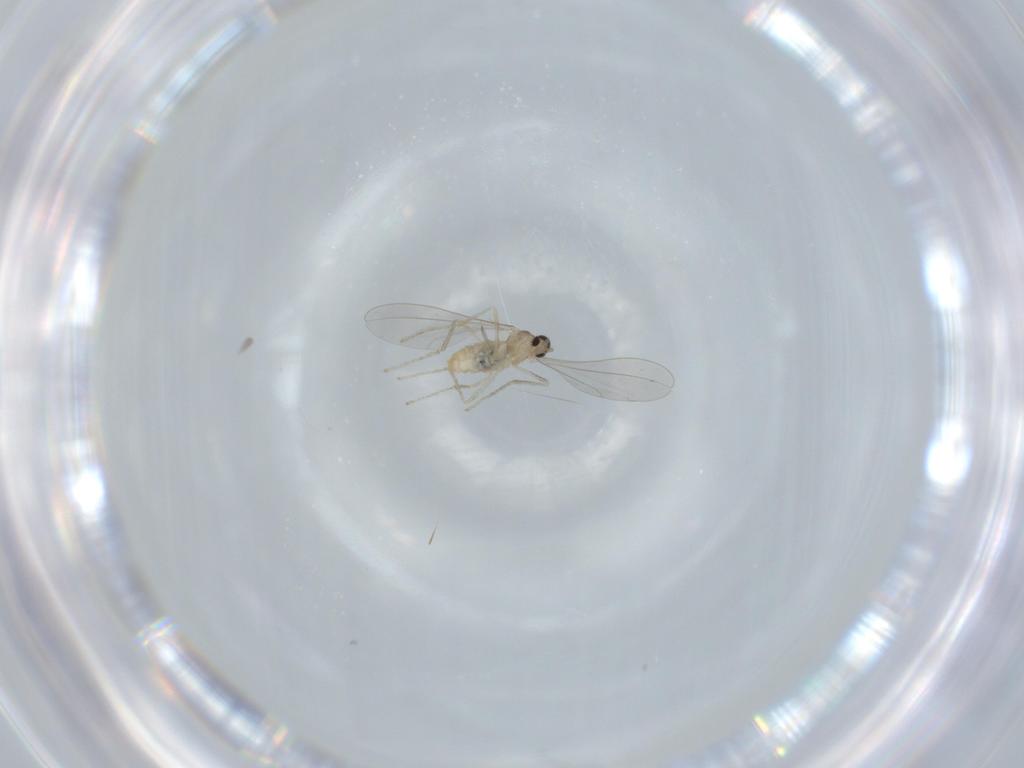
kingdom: Animalia
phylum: Arthropoda
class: Insecta
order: Diptera
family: Cecidomyiidae
